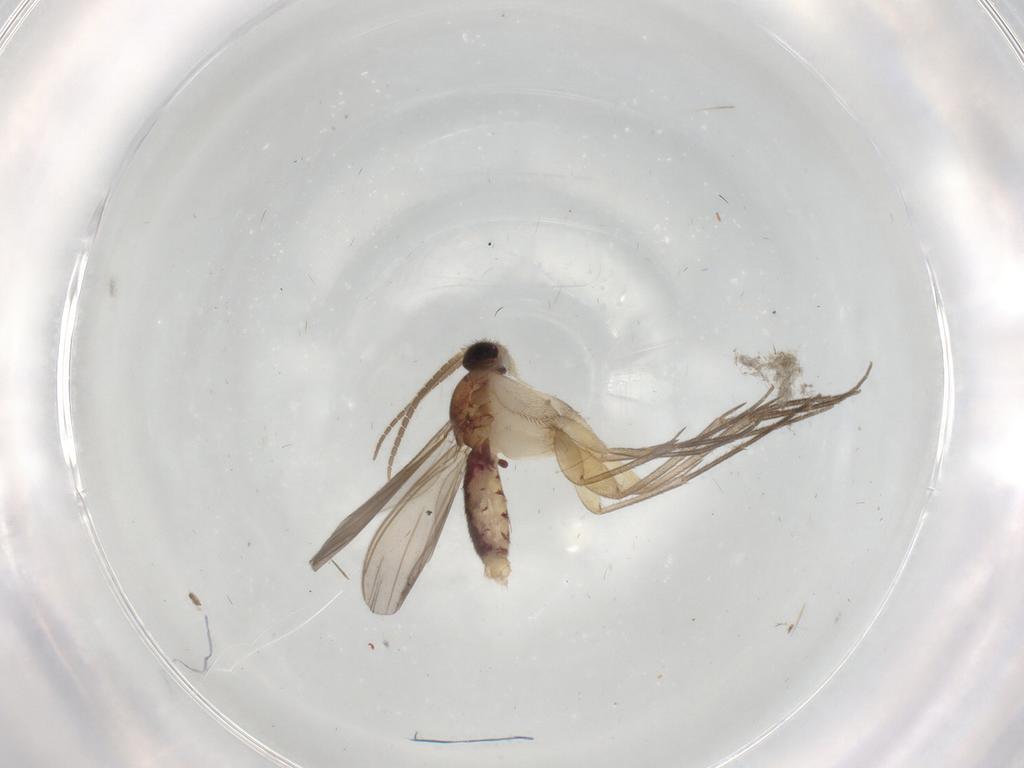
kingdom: Animalia
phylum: Arthropoda
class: Insecta
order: Diptera
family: Mycetophilidae
